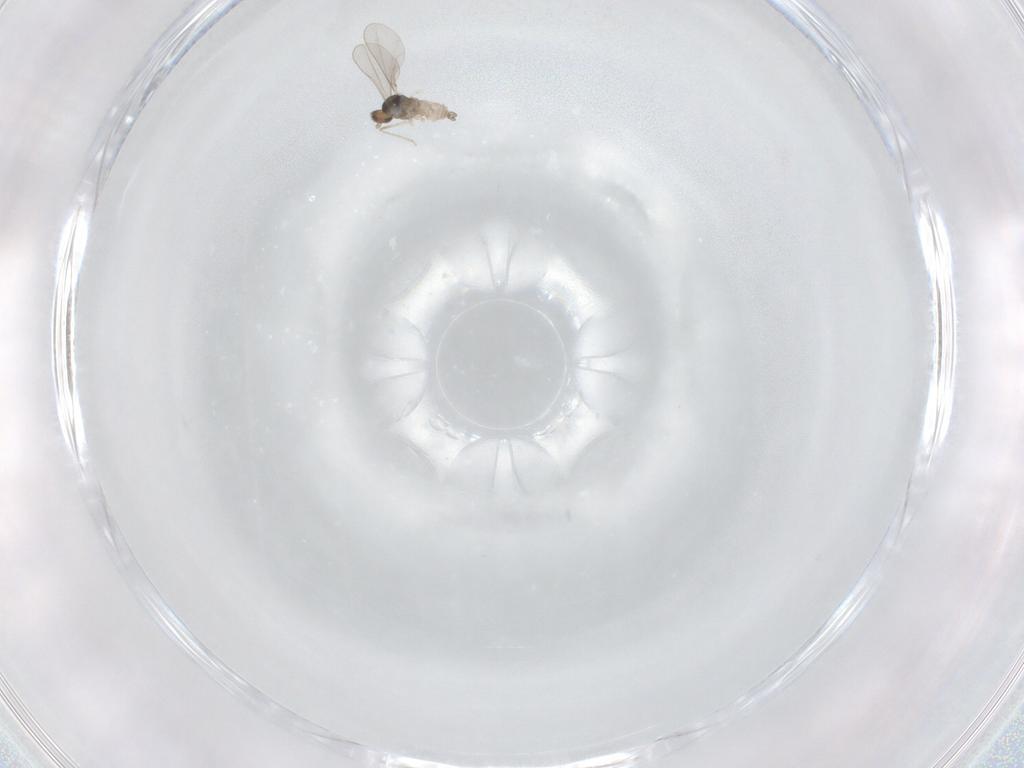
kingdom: Animalia
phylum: Arthropoda
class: Insecta
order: Diptera
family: Cecidomyiidae
